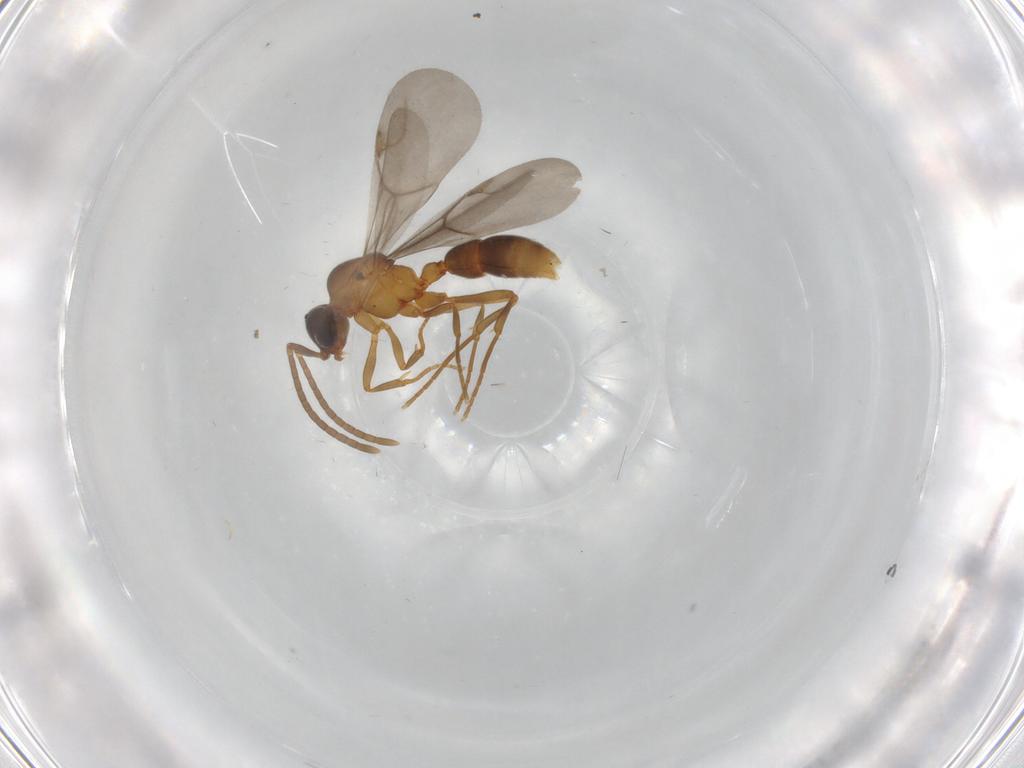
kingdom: Animalia
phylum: Arthropoda
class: Insecta
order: Hymenoptera
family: Formicidae
